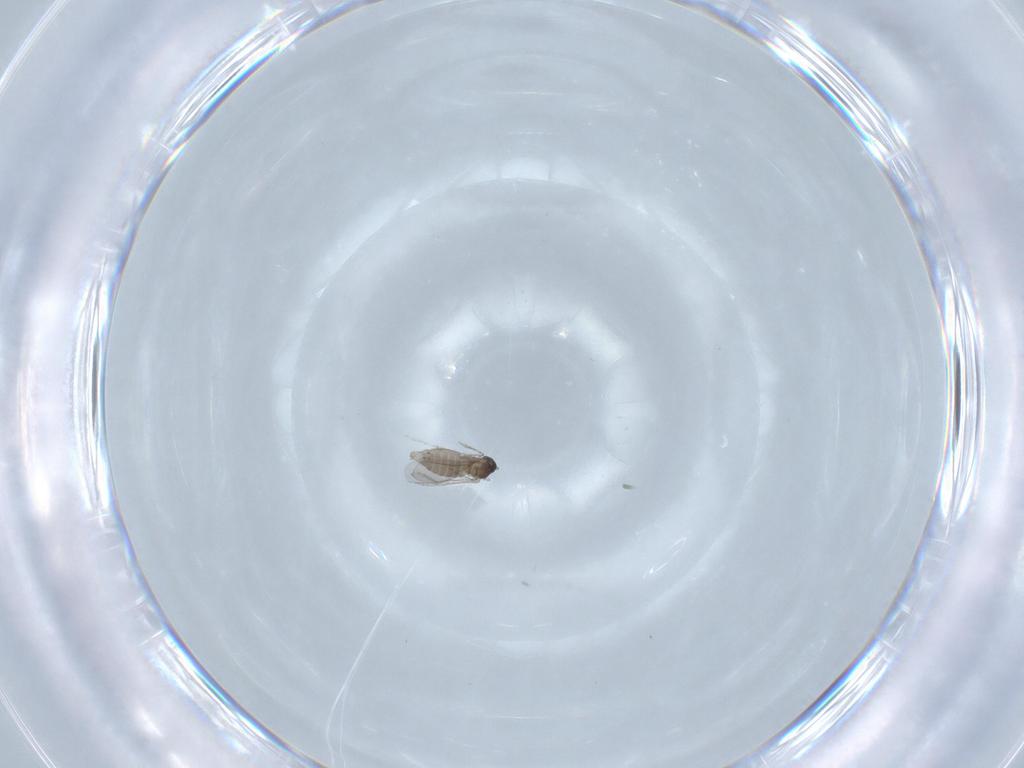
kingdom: Animalia
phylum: Arthropoda
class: Insecta
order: Diptera
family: Cecidomyiidae
